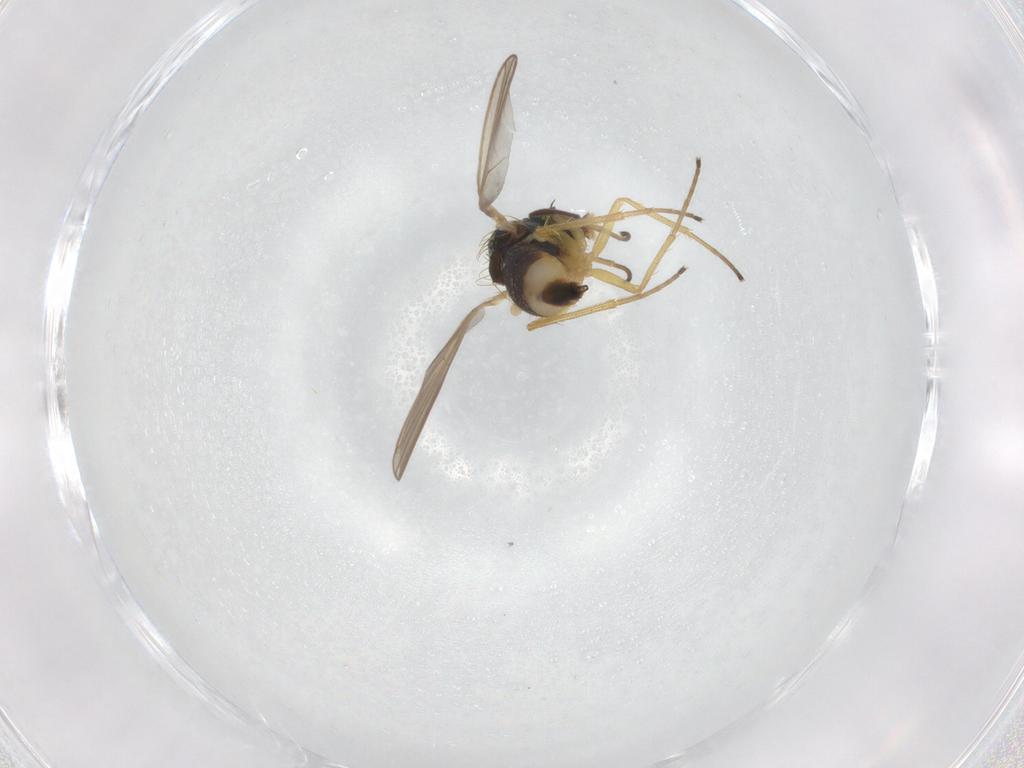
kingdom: Animalia
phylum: Arthropoda
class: Insecta
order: Diptera
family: Dolichopodidae
